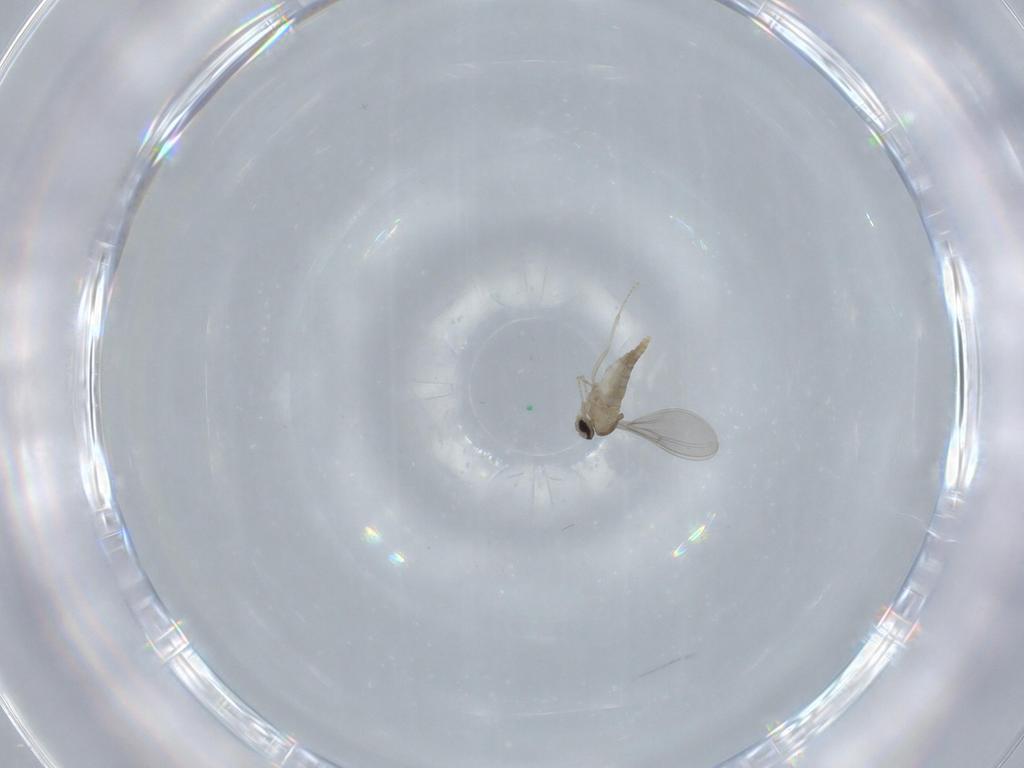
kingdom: Animalia
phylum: Arthropoda
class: Insecta
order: Diptera
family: Cecidomyiidae
